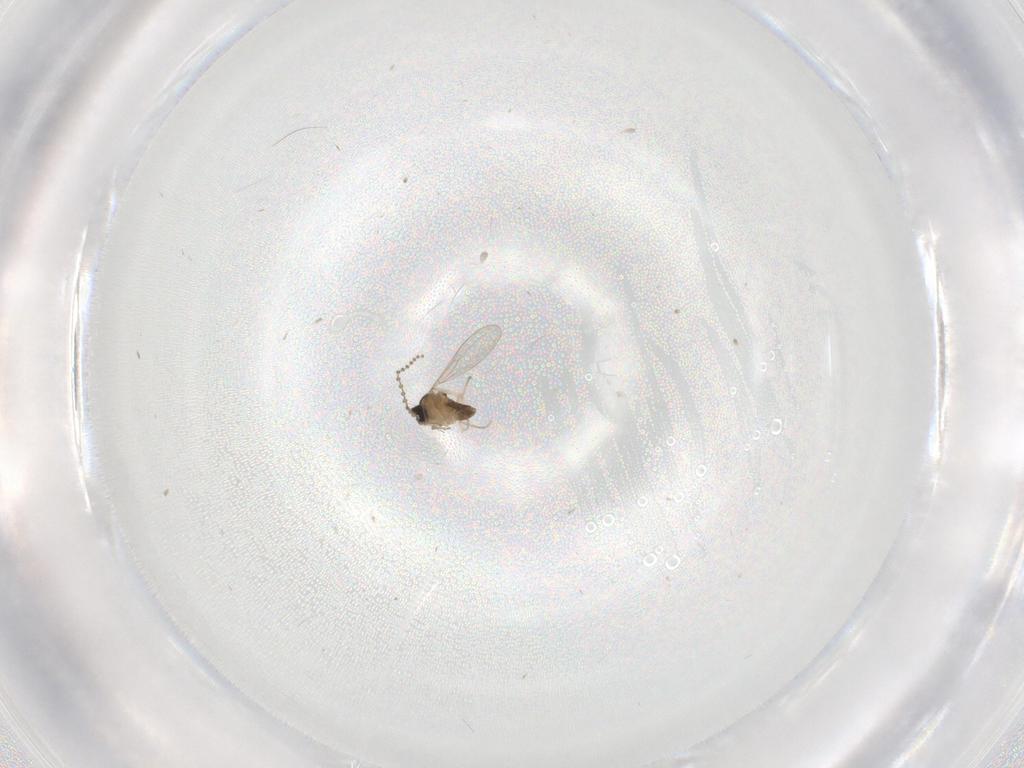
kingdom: Animalia
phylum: Arthropoda
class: Insecta
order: Diptera
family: Cecidomyiidae
